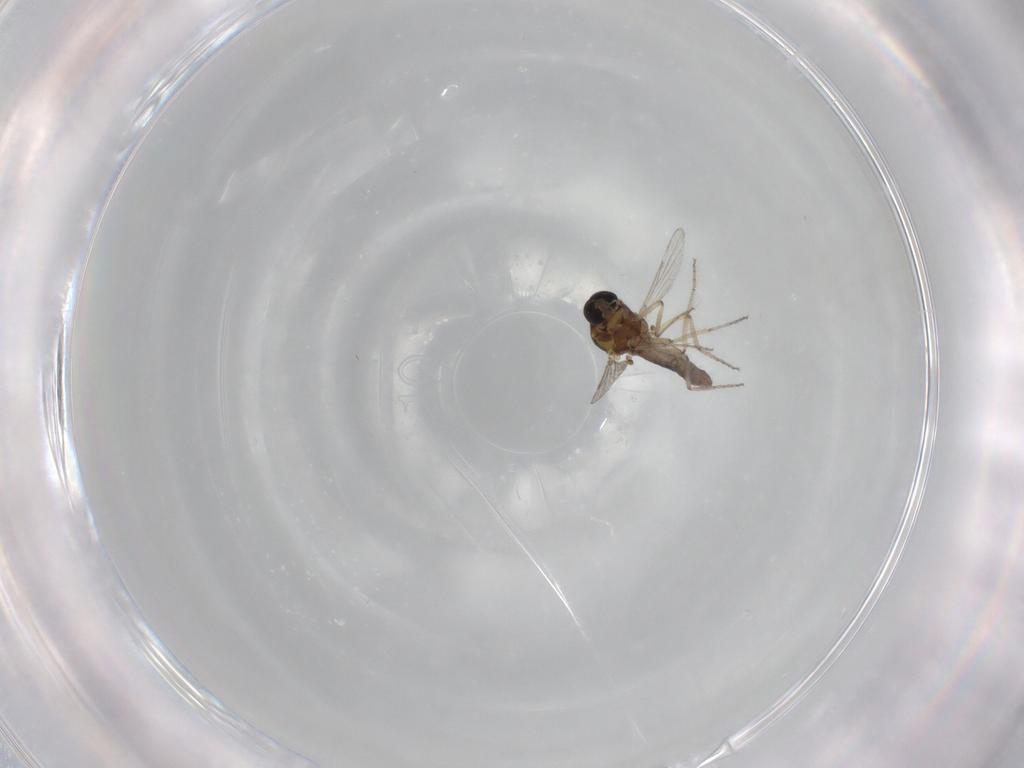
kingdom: Animalia
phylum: Arthropoda
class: Insecta
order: Diptera
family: Ceratopogonidae
